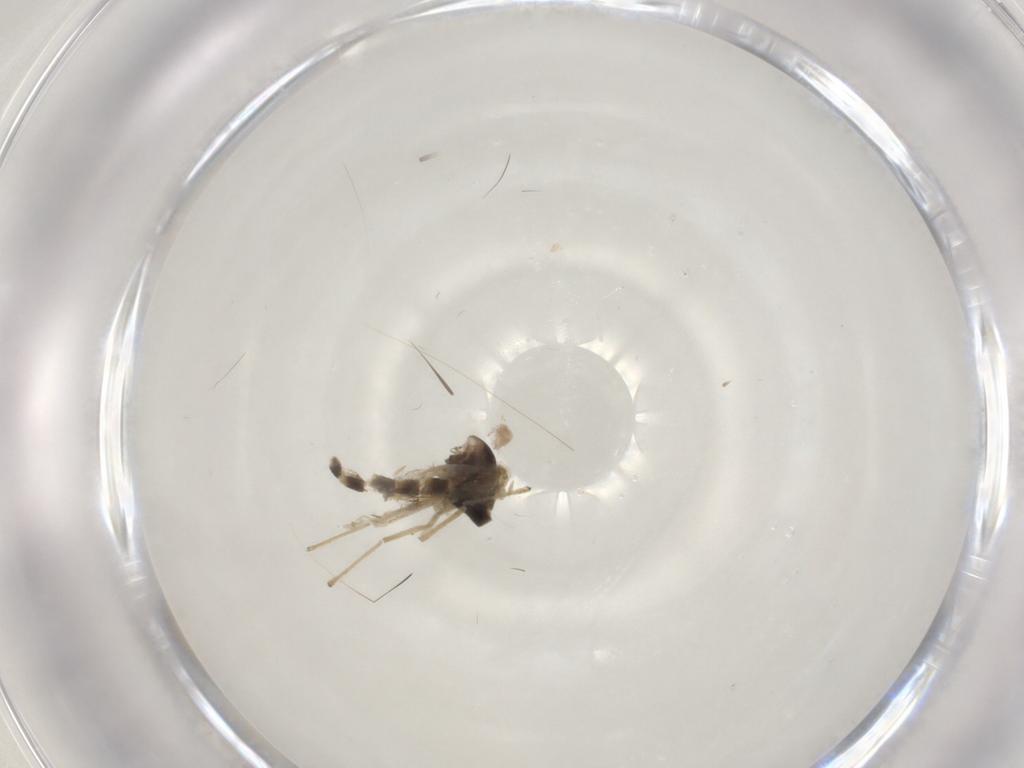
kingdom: Animalia
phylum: Arthropoda
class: Insecta
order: Diptera
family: Chironomidae
